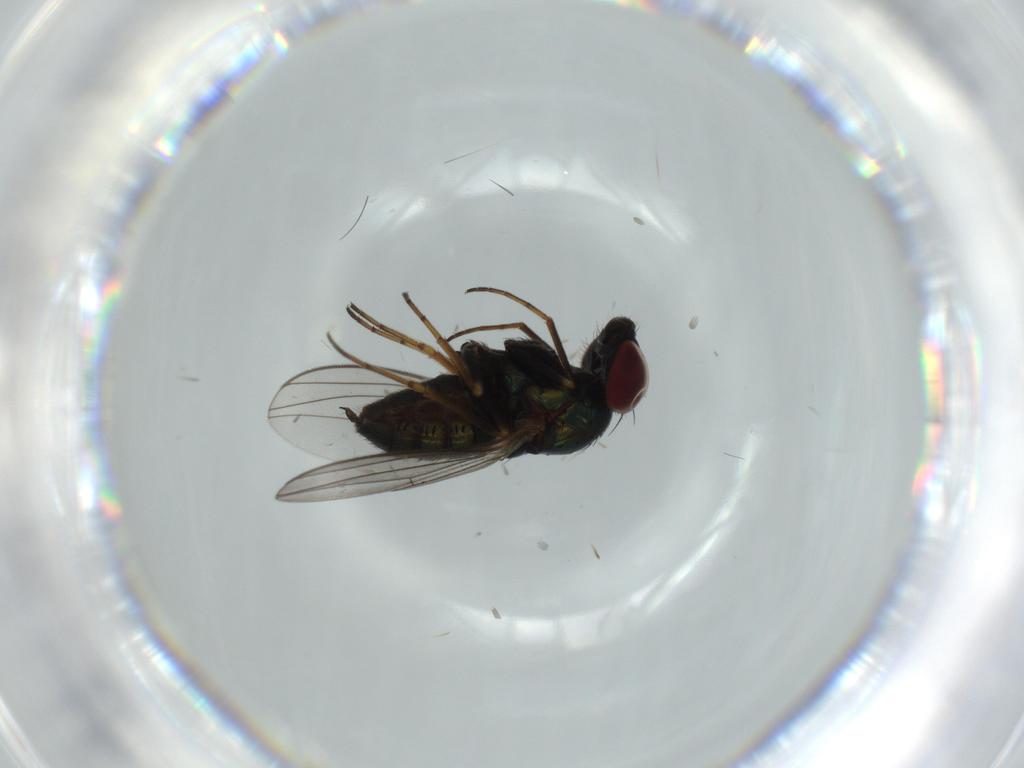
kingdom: Animalia
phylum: Arthropoda
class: Insecta
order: Diptera
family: Dolichopodidae
